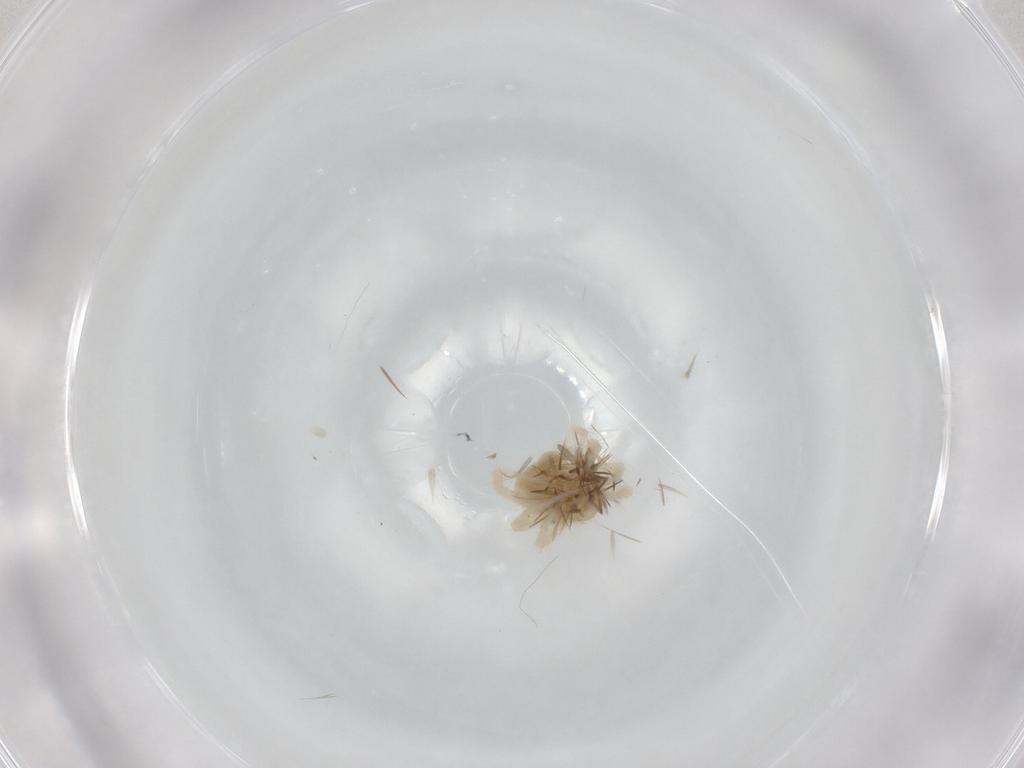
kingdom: Animalia
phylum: Arthropoda
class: Arachnida
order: Trombidiformes
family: Anystidae
